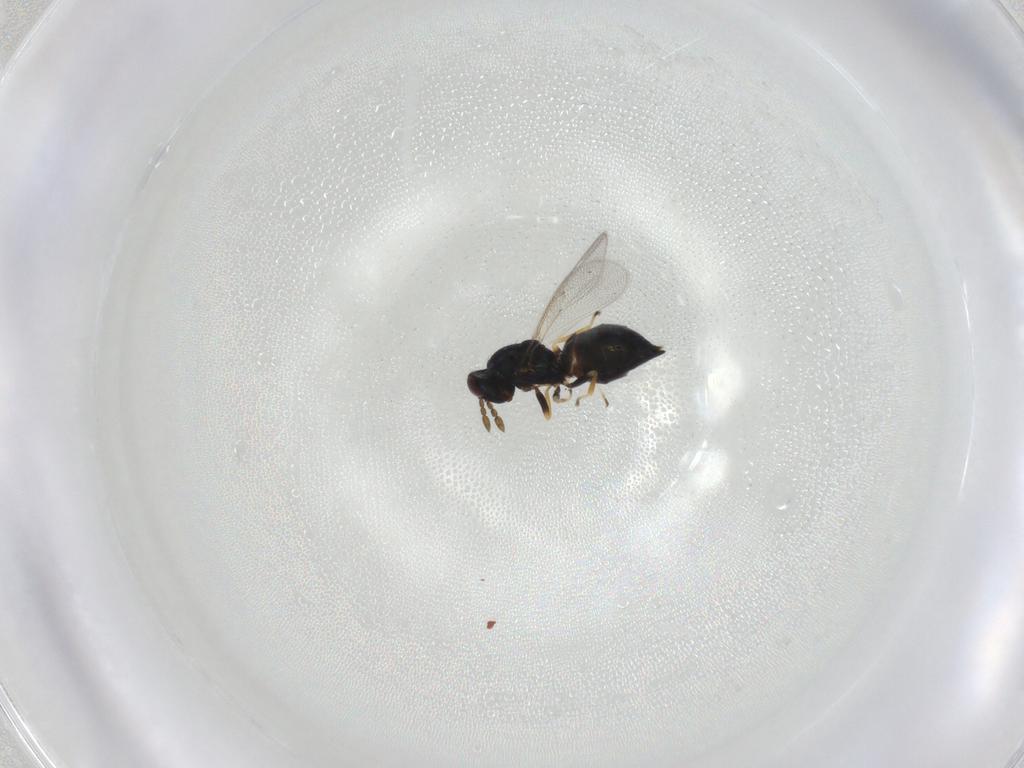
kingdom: Animalia
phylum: Arthropoda
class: Insecta
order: Hymenoptera
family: Eulophidae
